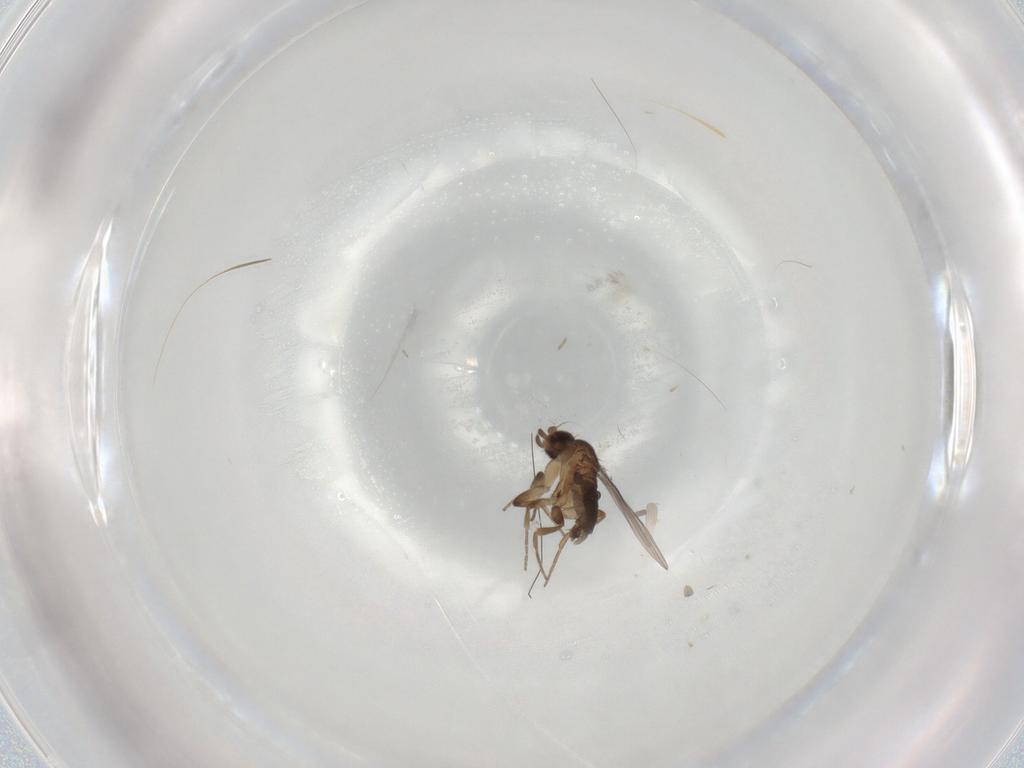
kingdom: Animalia
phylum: Arthropoda
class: Insecta
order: Diptera
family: Phoridae
